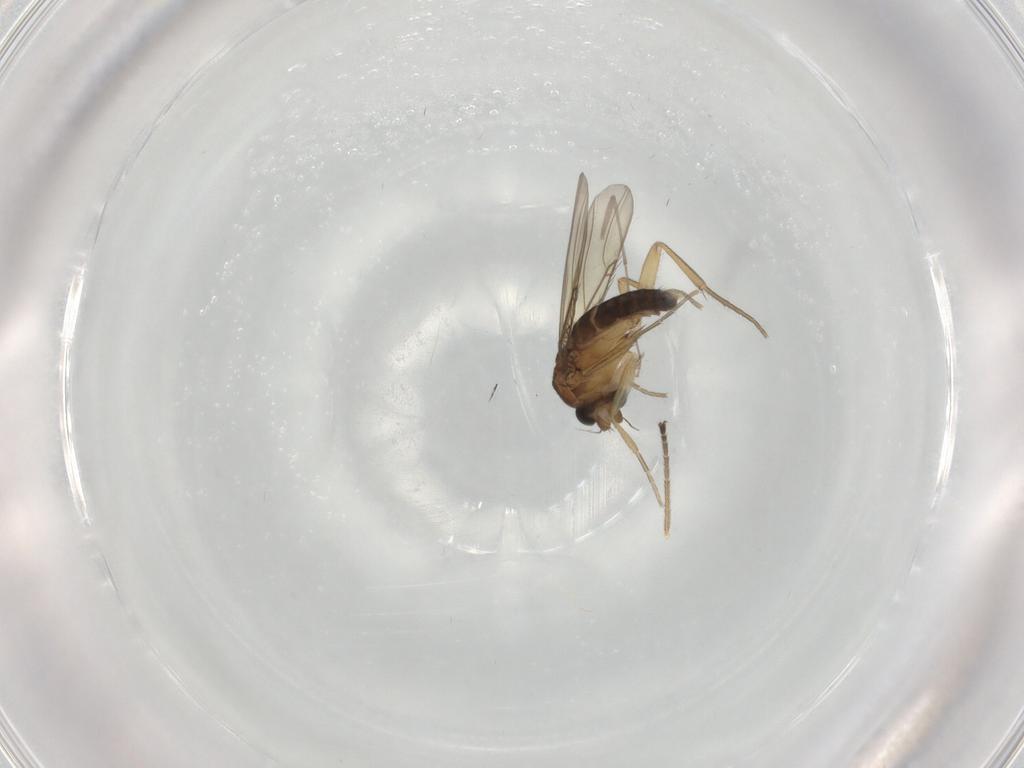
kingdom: Animalia
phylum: Arthropoda
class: Insecta
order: Diptera
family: Phoridae
